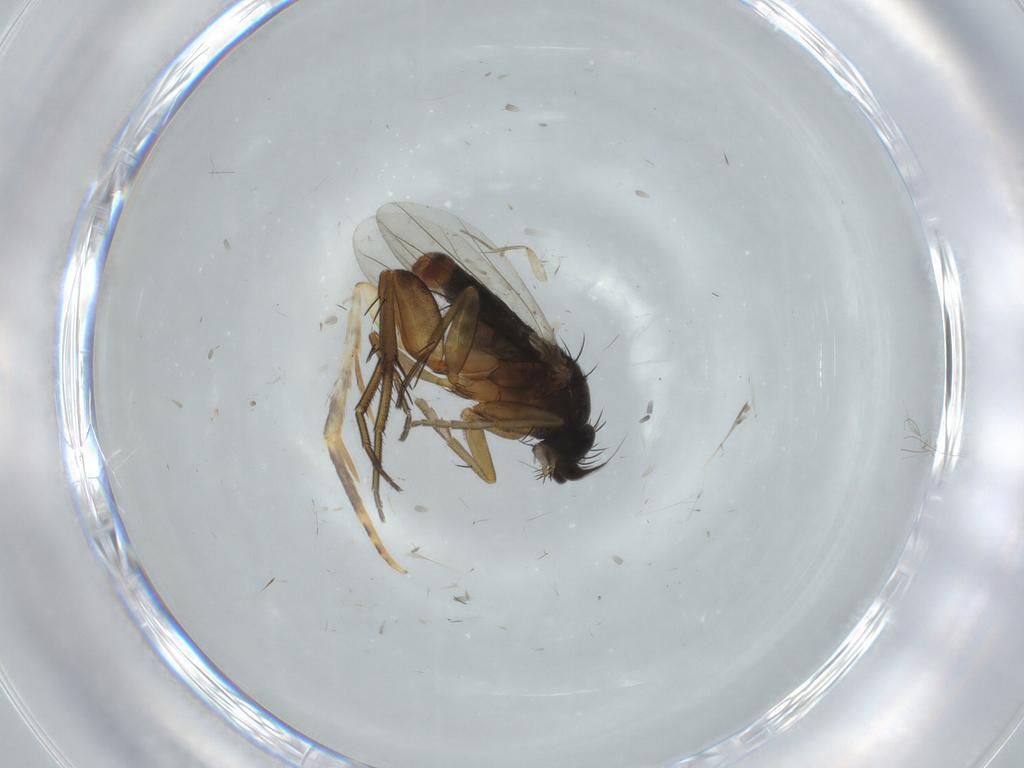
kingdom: Animalia
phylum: Arthropoda
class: Insecta
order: Diptera
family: Phoridae
